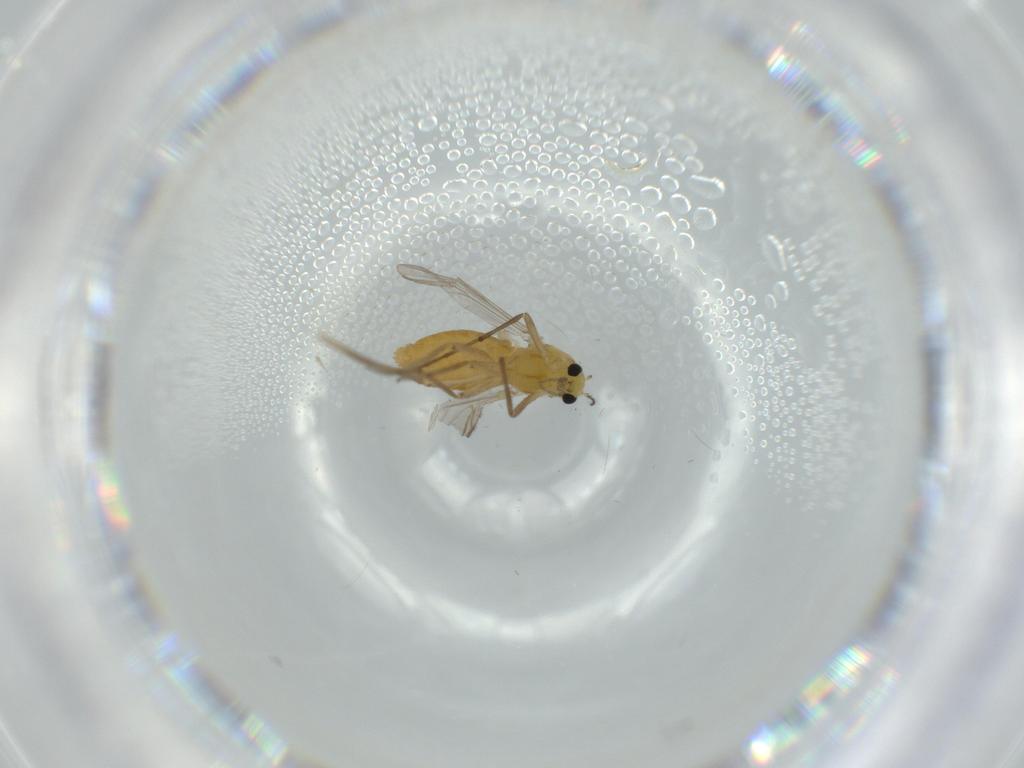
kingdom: Animalia
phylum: Arthropoda
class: Insecta
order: Diptera
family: Chironomidae
